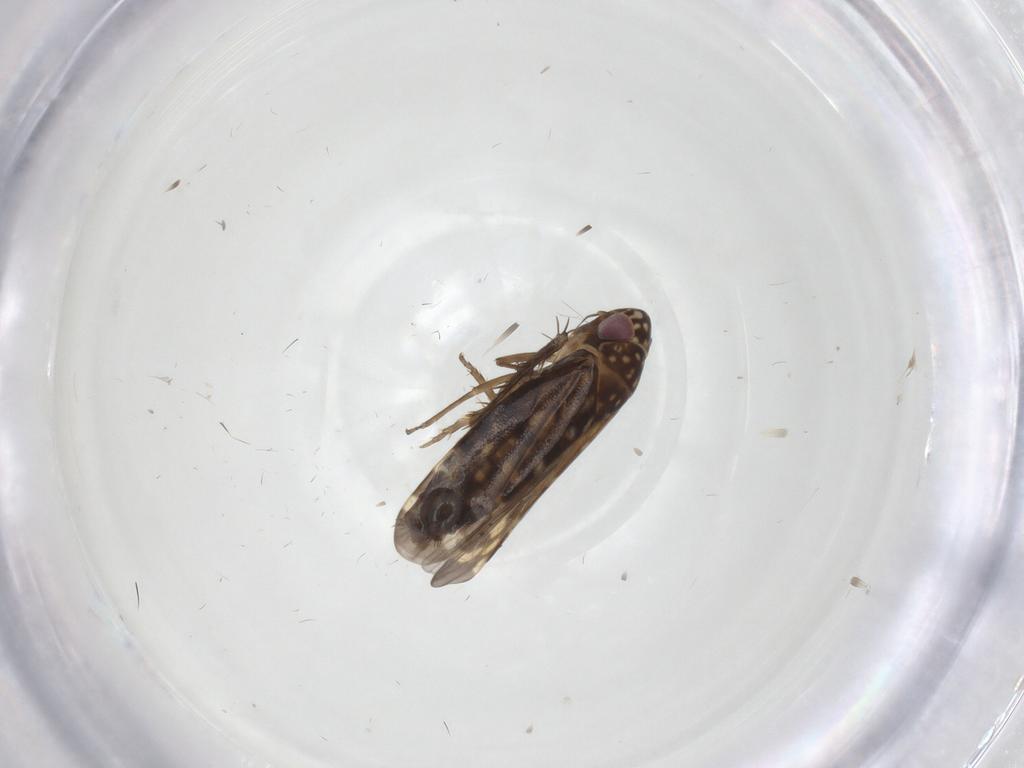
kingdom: Animalia
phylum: Arthropoda
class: Insecta
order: Hemiptera
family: Cicadellidae
